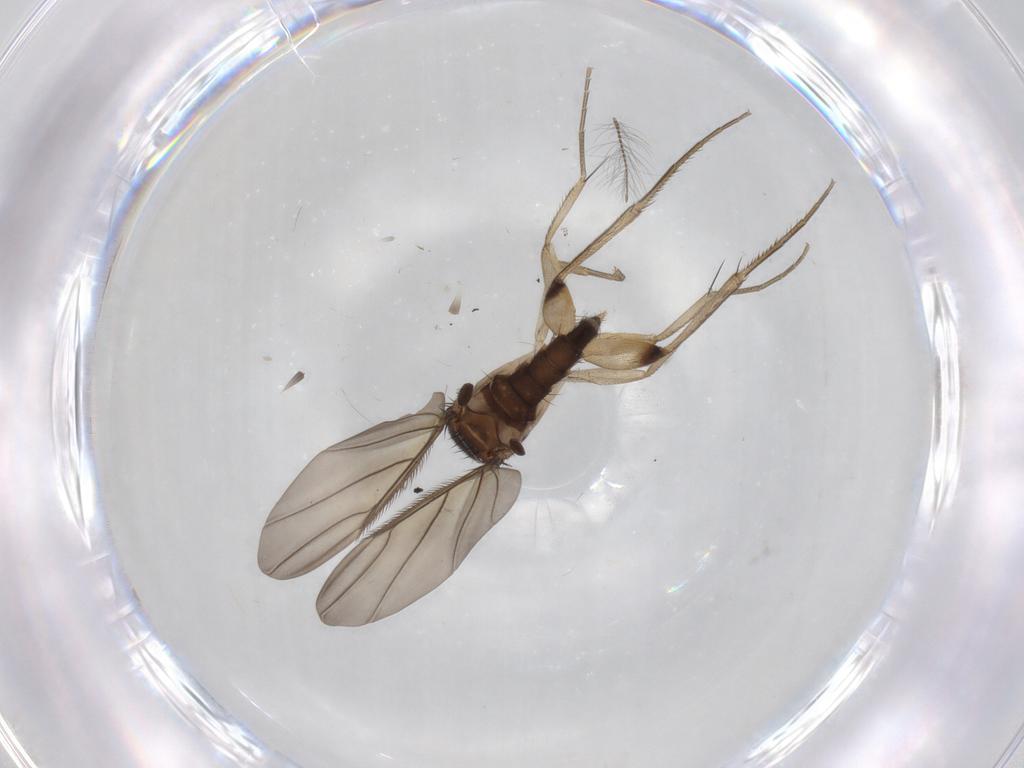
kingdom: Animalia
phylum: Arthropoda
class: Insecta
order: Diptera
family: Phoridae
